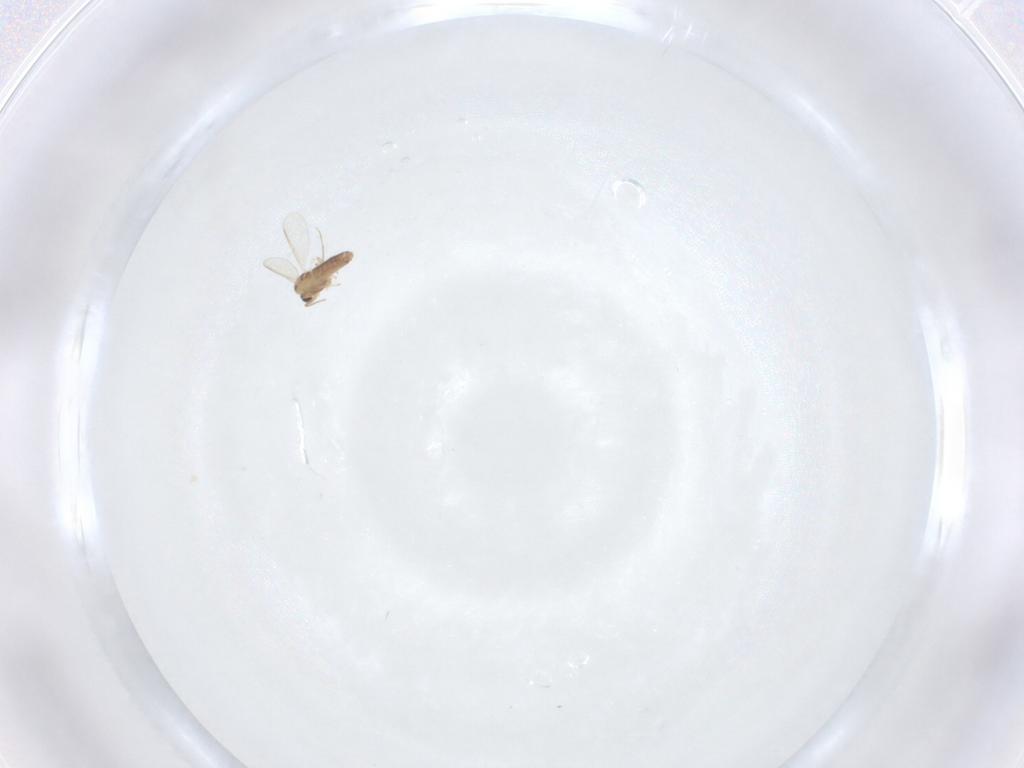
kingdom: Animalia
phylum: Arthropoda
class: Insecta
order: Diptera
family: Chironomidae
